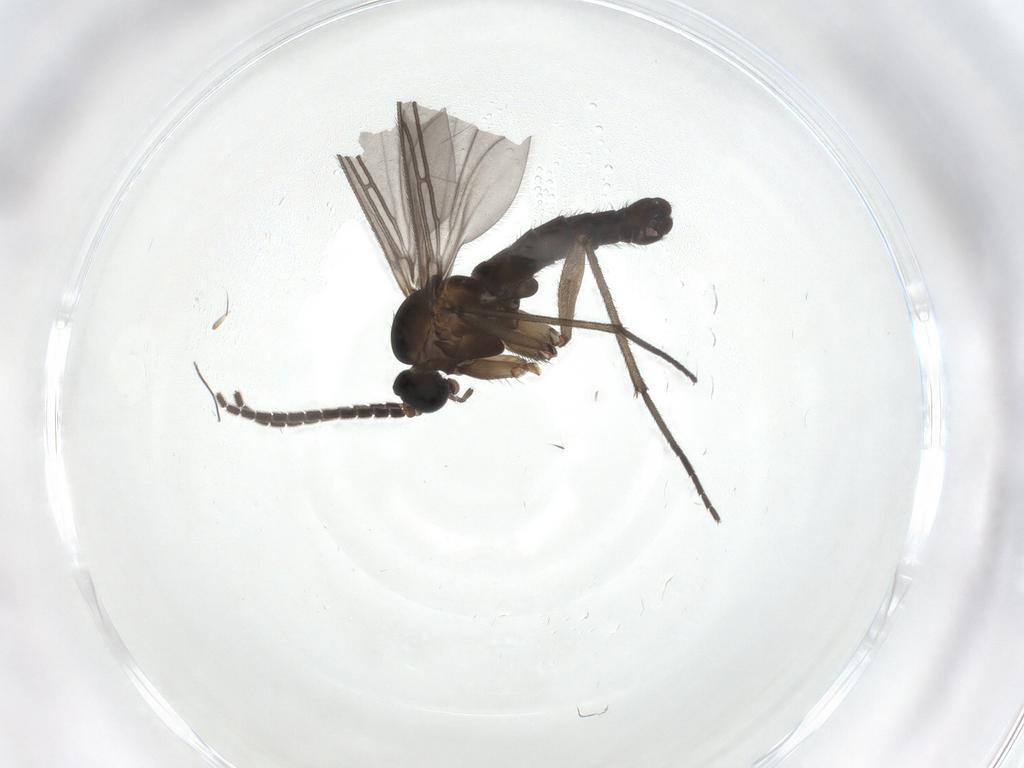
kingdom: Animalia
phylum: Arthropoda
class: Insecta
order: Diptera
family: Sciaridae
